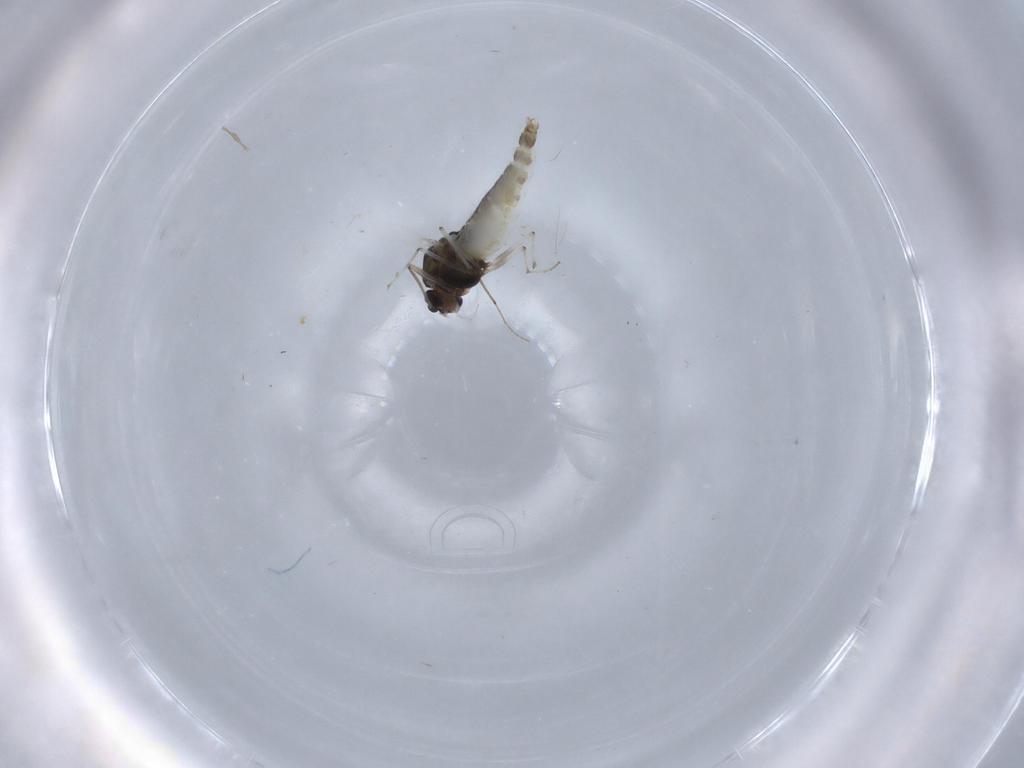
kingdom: Animalia
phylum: Arthropoda
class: Insecta
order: Diptera
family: Chironomidae
